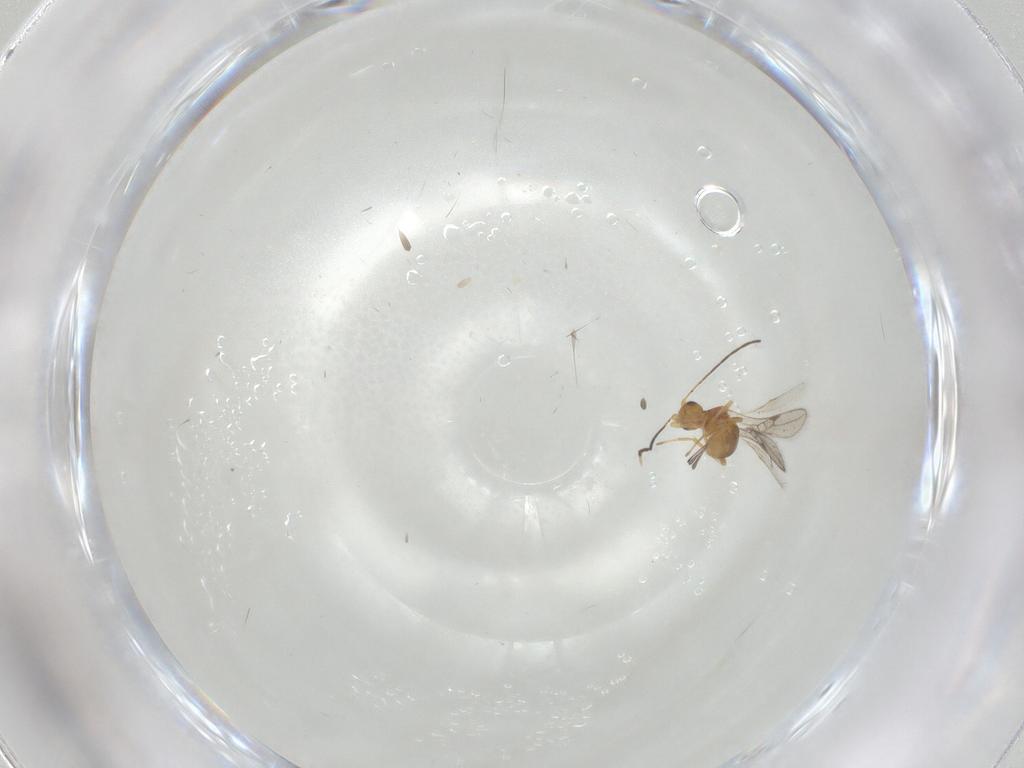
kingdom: Animalia
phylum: Arthropoda
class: Insecta
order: Hymenoptera
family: Braconidae
